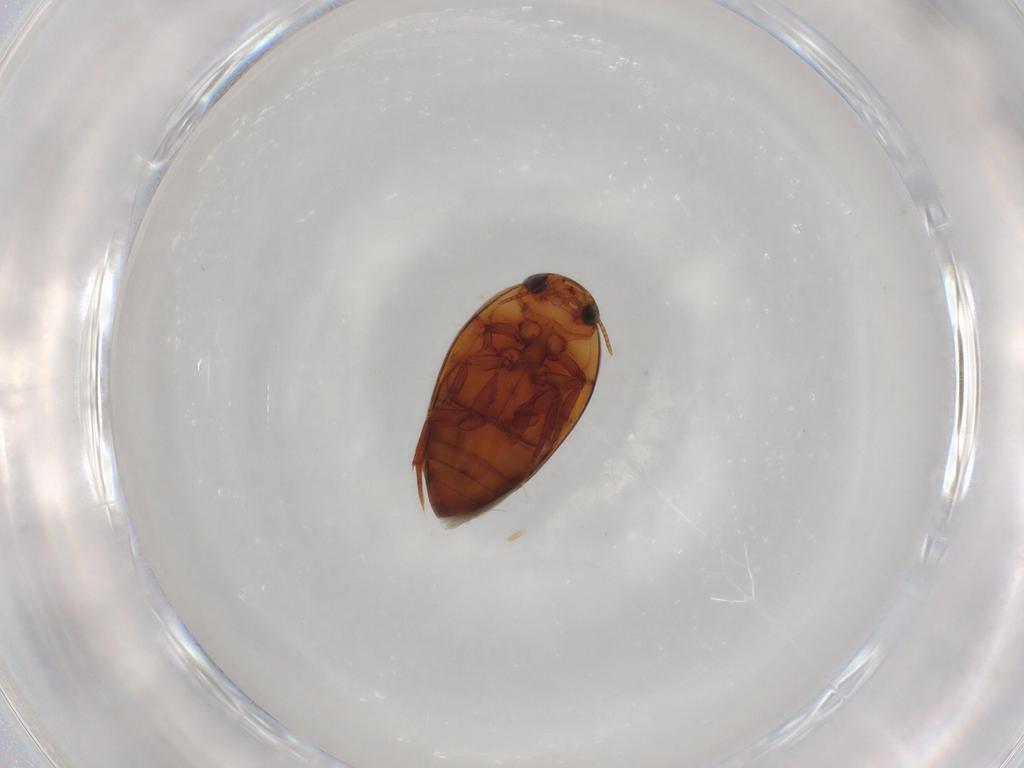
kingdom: Animalia
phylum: Arthropoda
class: Insecta
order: Coleoptera
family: Noteridae
